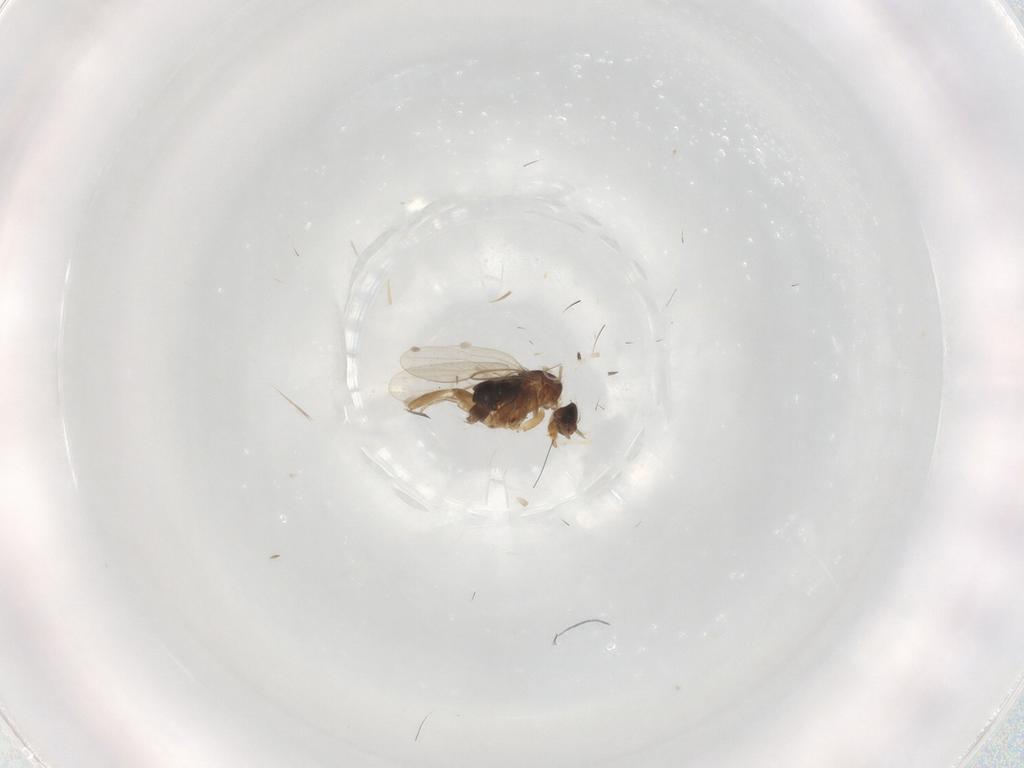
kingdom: Animalia
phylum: Arthropoda
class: Insecta
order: Diptera
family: Phoridae
